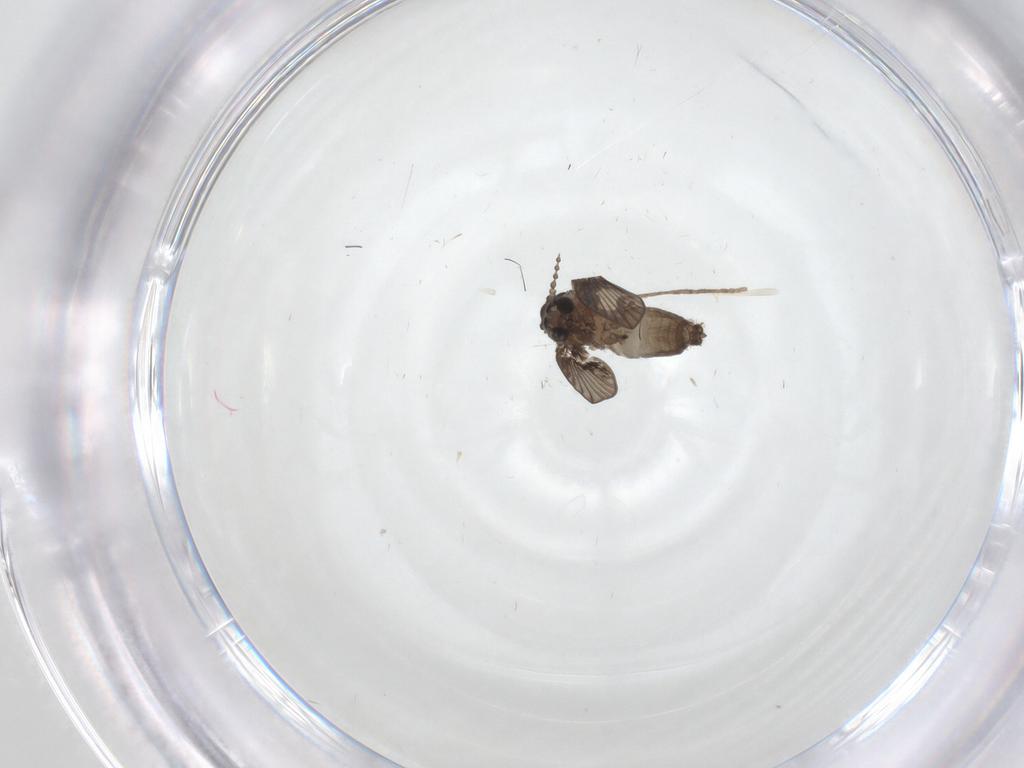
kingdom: Animalia
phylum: Arthropoda
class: Insecta
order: Diptera
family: Psychodidae
